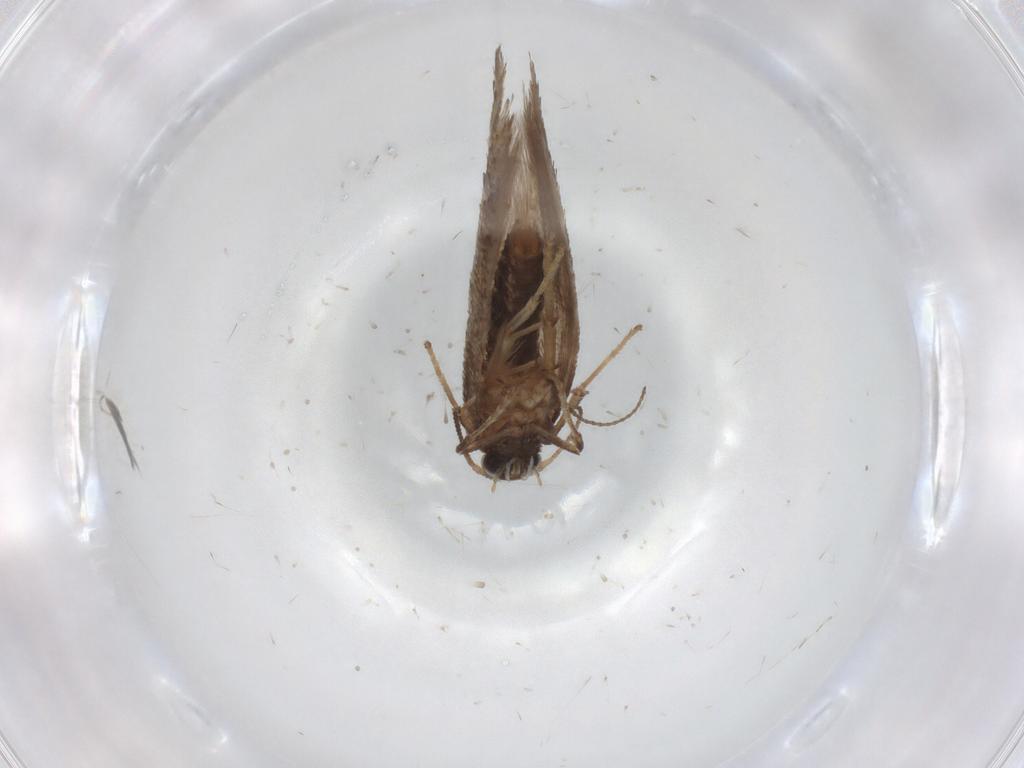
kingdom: Animalia
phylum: Arthropoda
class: Insecta
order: Lepidoptera
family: Nepticulidae
